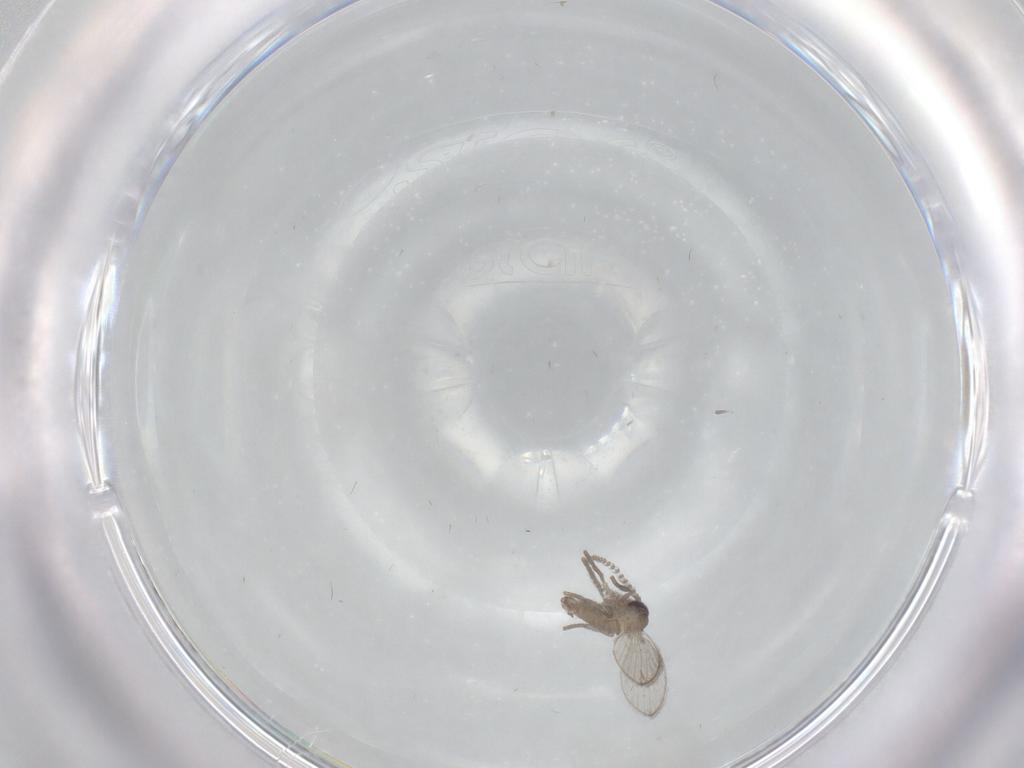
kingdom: Animalia
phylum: Arthropoda
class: Insecta
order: Diptera
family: Psychodidae
